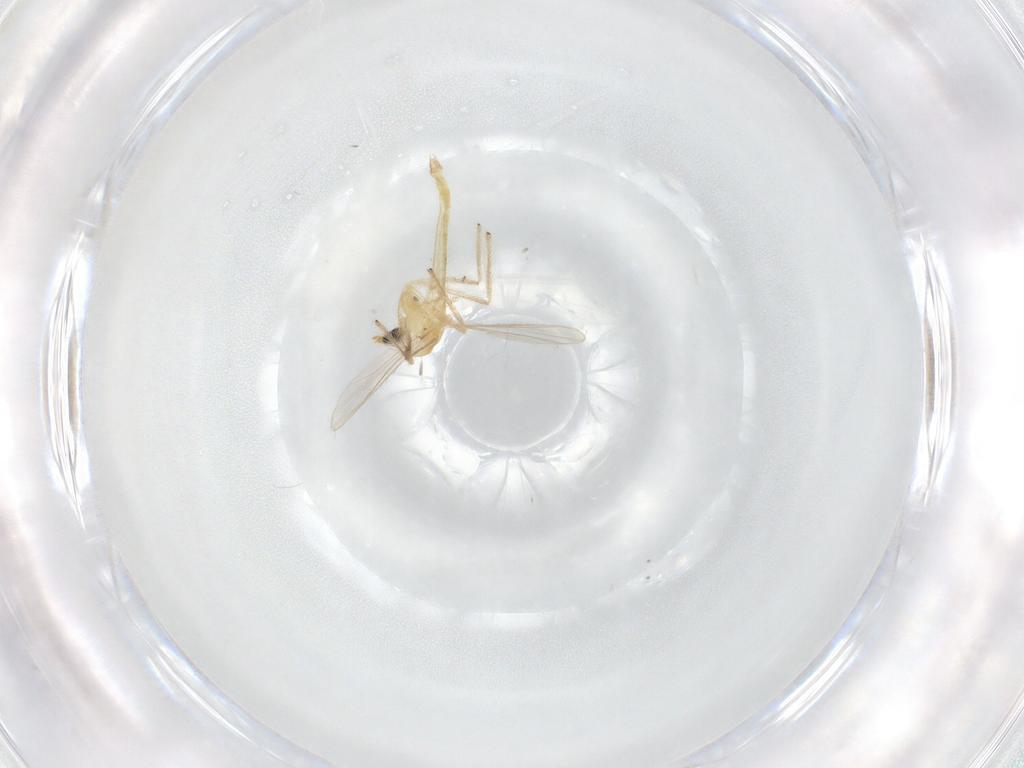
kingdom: Animalia
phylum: Arthropoda
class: Insecta
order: Diptera
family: Chironomidae
